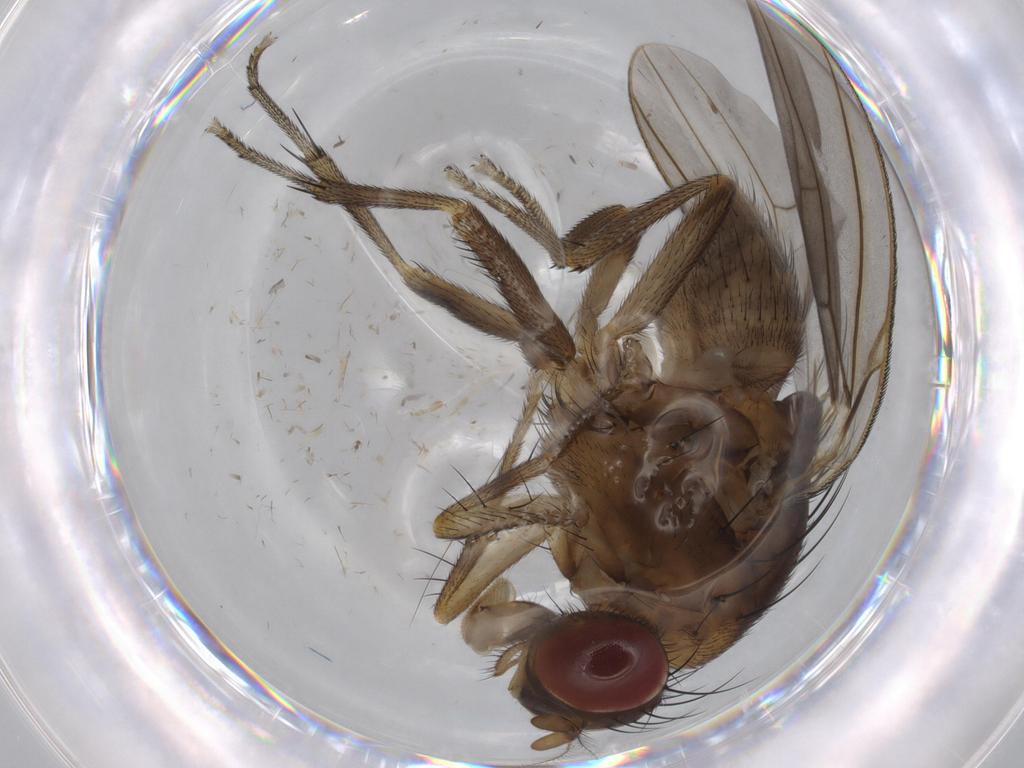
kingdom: Animalia
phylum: Arthropoda
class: Insecta
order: Diptera
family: Cecidomyiidae
